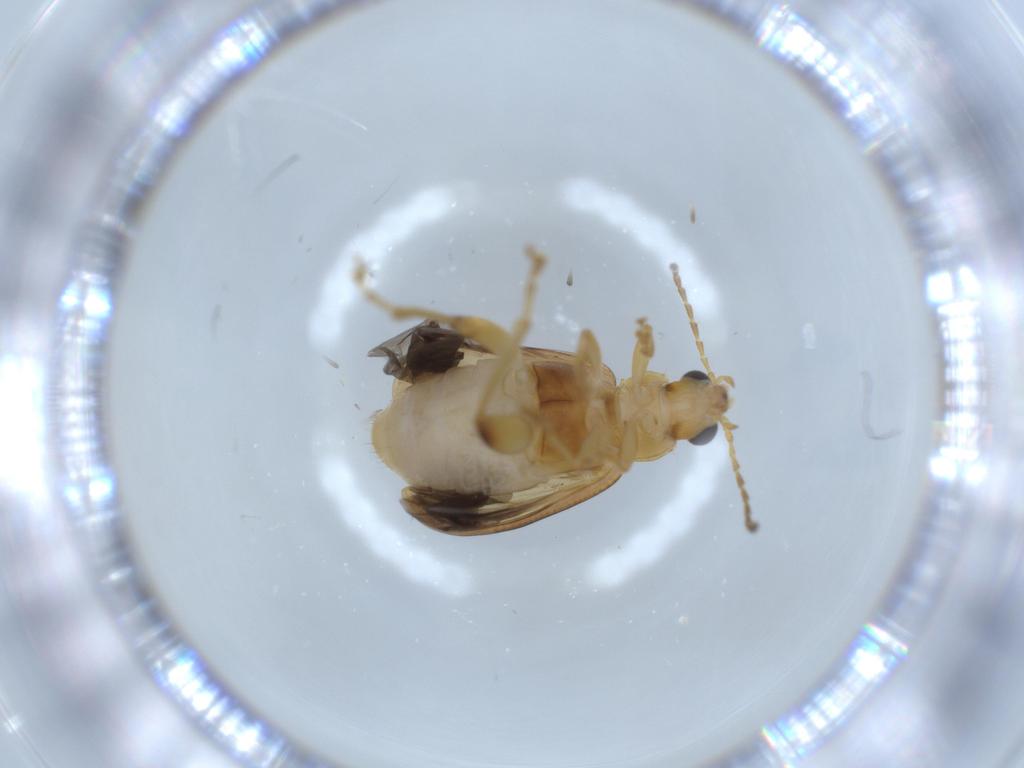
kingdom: Animalia
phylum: Arthropoda
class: Insecta
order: Coleoptera
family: Chrysomelidae
